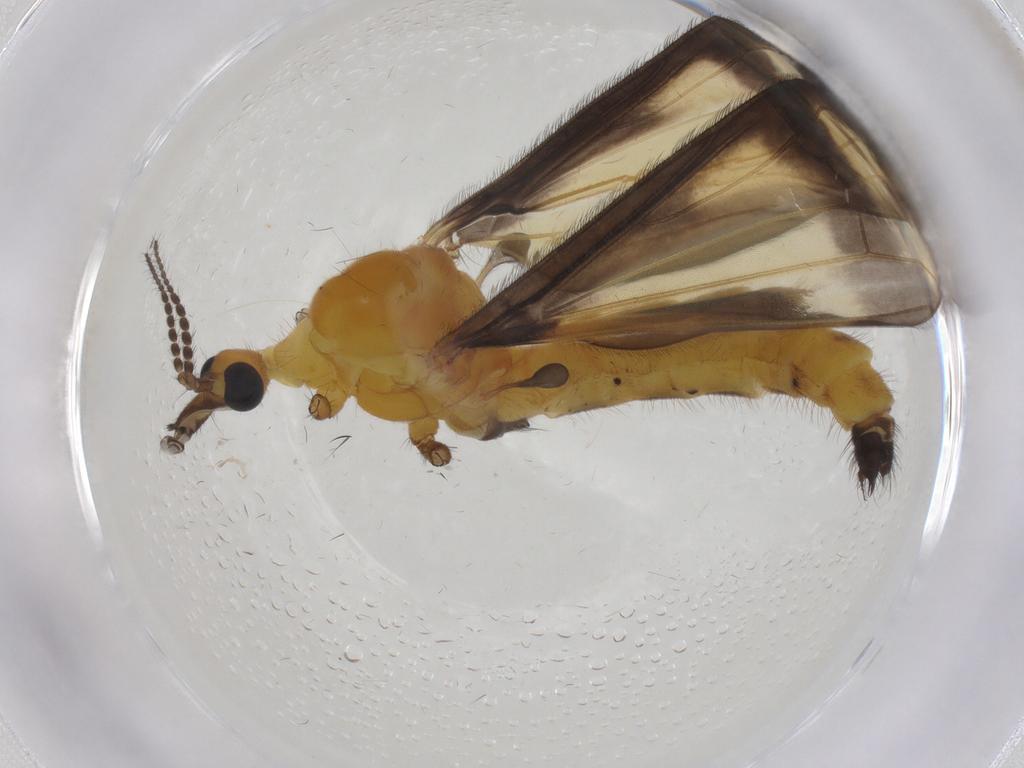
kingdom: Animalia
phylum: Arthropoda
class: Insecta
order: Diptera
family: Limoniidae
